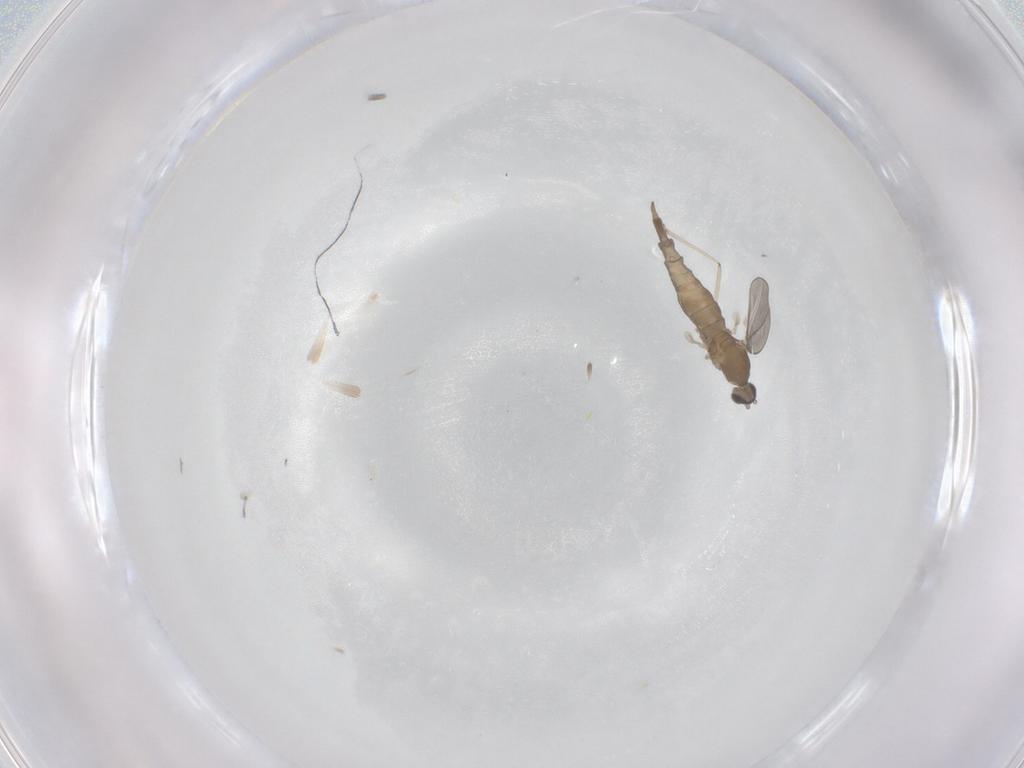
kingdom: Animalia
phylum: Arthropoda
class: Insecta
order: Diptera
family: Cecidomyiidae
